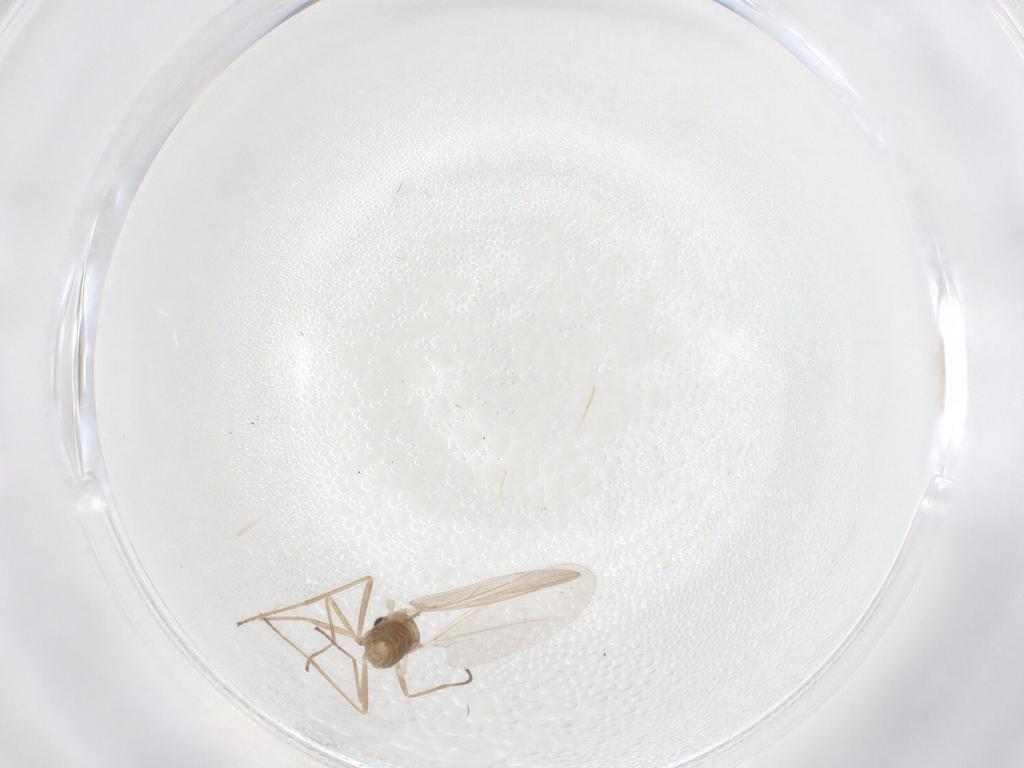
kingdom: Animalia
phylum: Arthropoda
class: Insecta
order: Diptera
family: Cecidomyiidae
